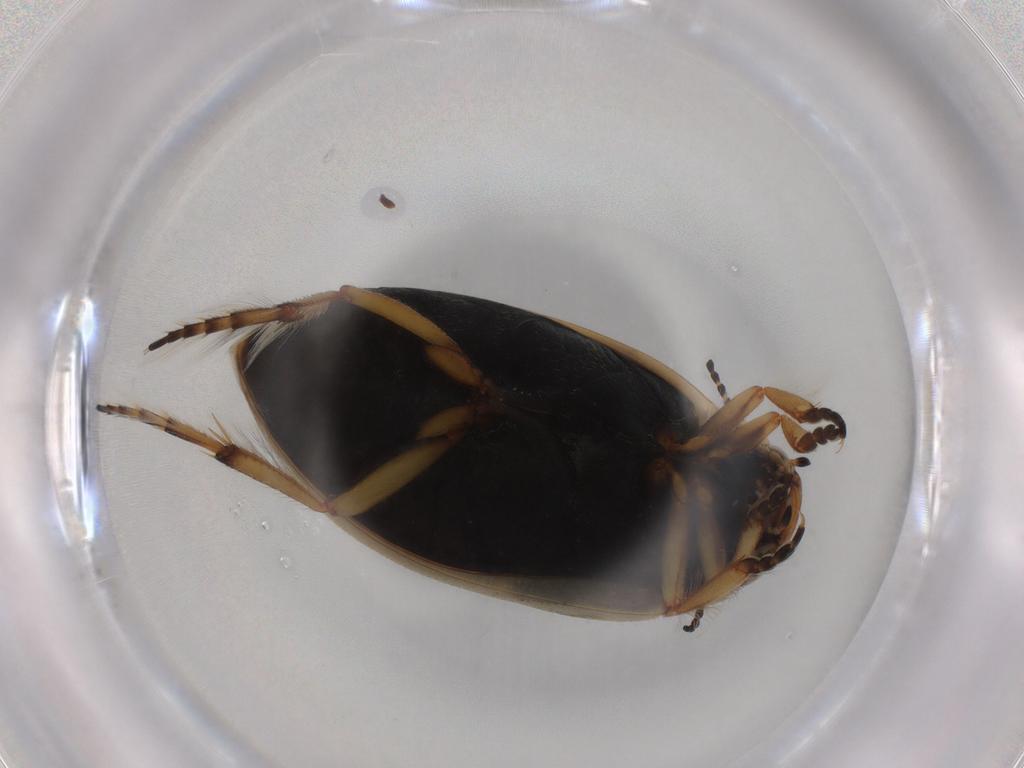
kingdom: Animalia
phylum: Arthropoda
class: Insecta
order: Coleoptera
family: Dytiscidae
